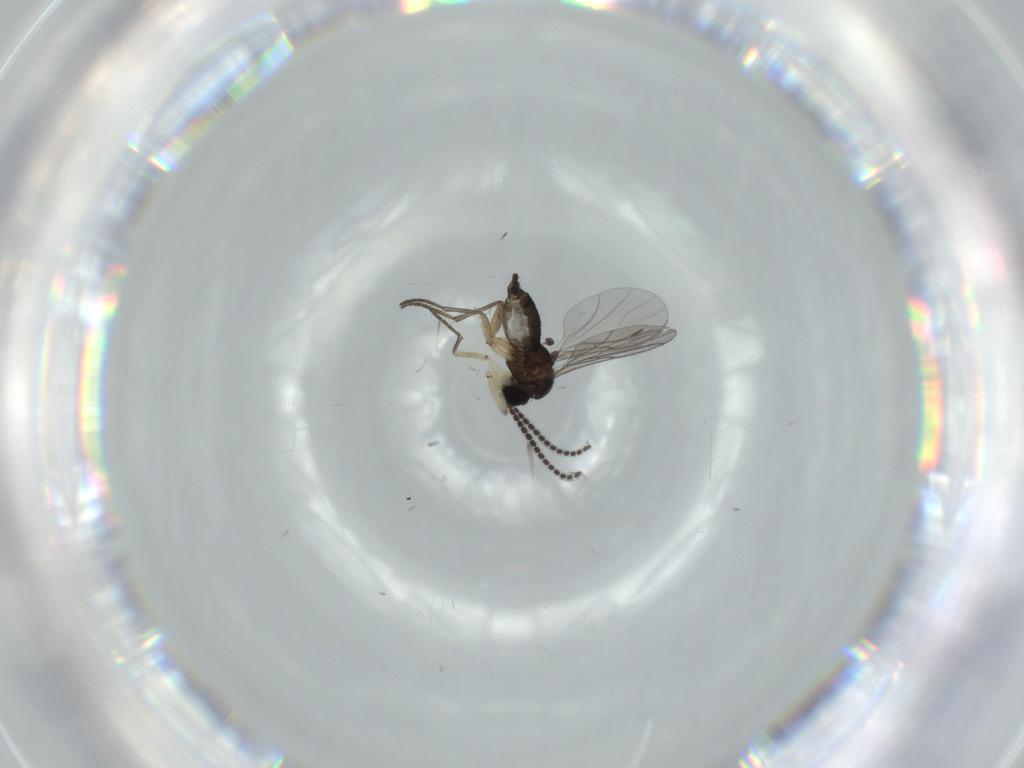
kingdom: Animalia
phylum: Arthropoda
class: Insecta
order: Diptera
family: Sciaridae
